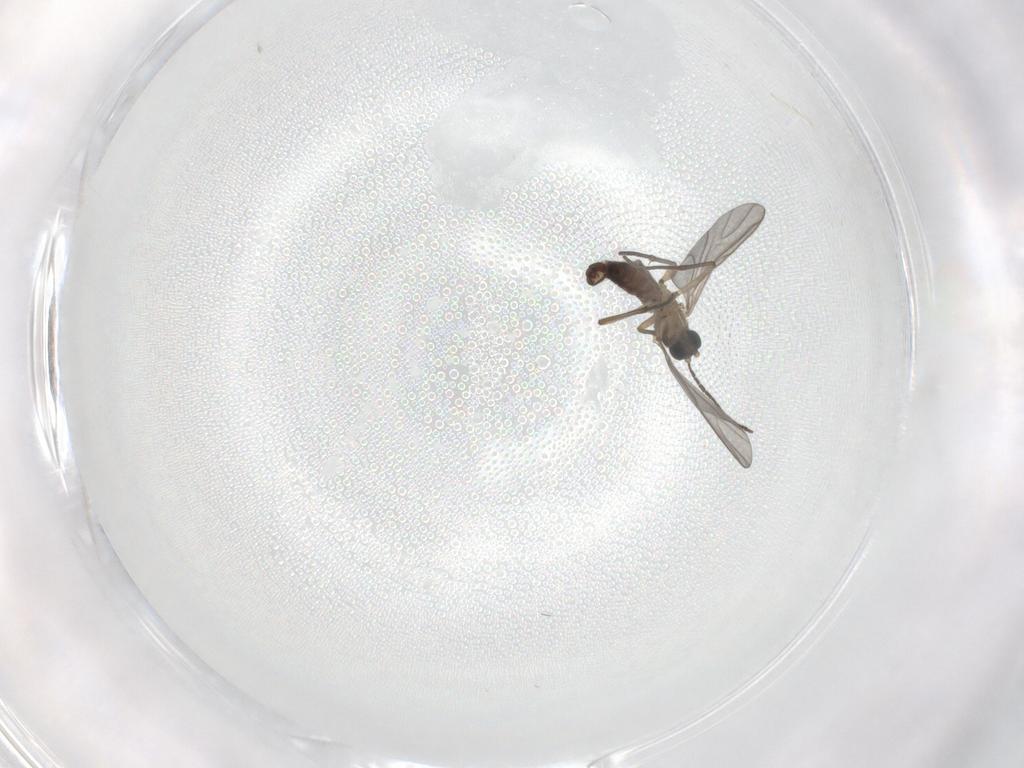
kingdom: Animalia
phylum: Arthropoda
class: Insecta
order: Diptera
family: Sciaridae
